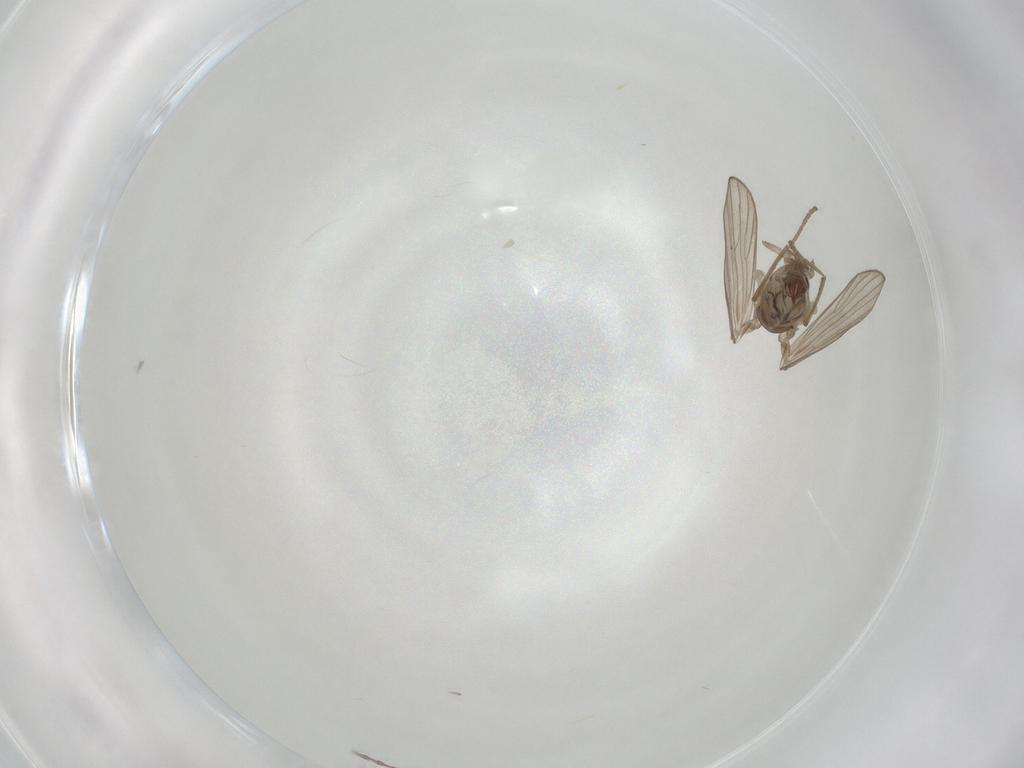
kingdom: Animalia
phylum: Arthropoda
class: Insecta
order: Diptera
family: Psychodidae
